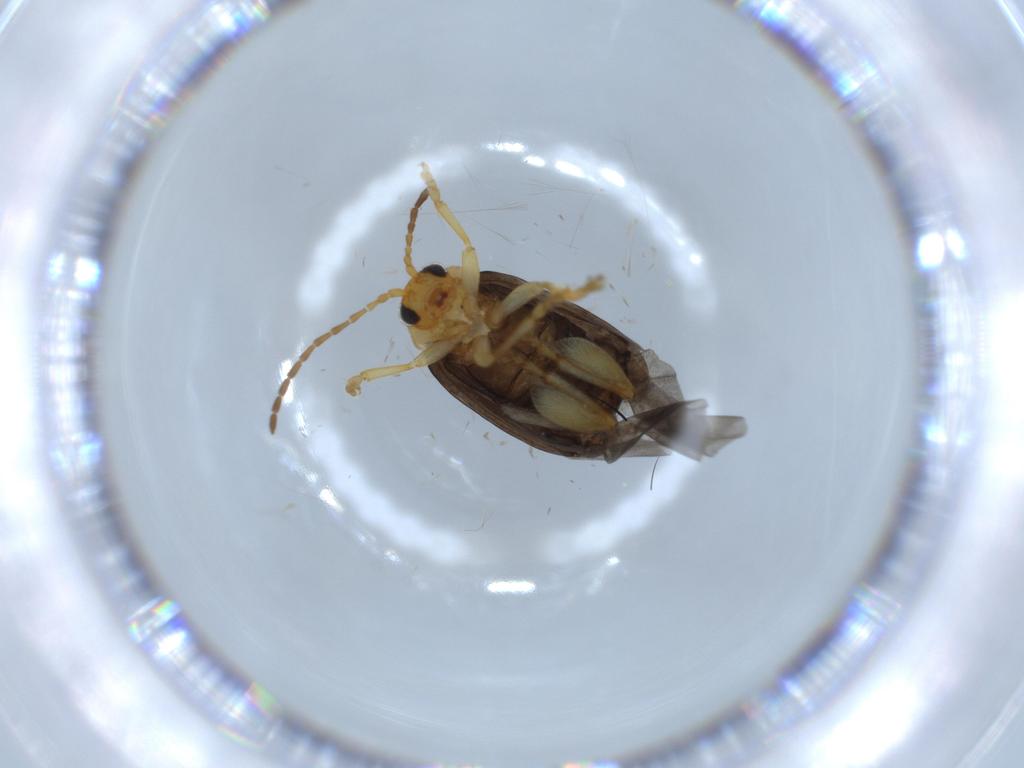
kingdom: Animalia
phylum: Arthropoda
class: Insecta
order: Coleoptera
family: Chrysomelidae
